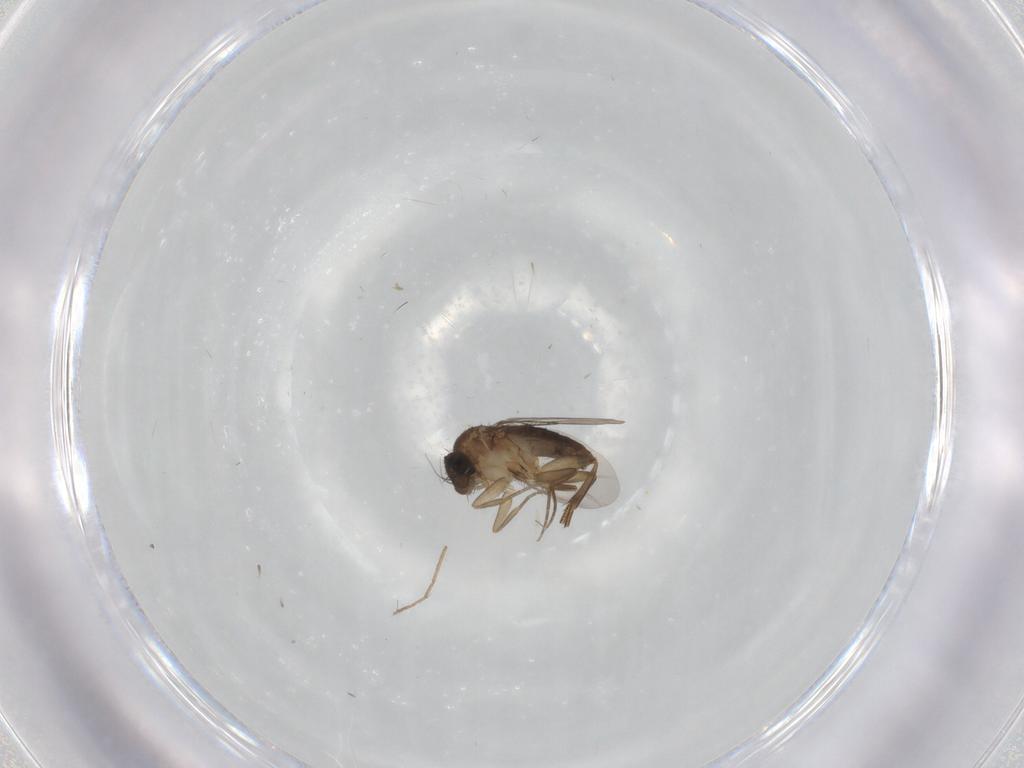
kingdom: Animalia
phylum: Arthropoda
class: Insecta
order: Diptera
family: Phoridae
